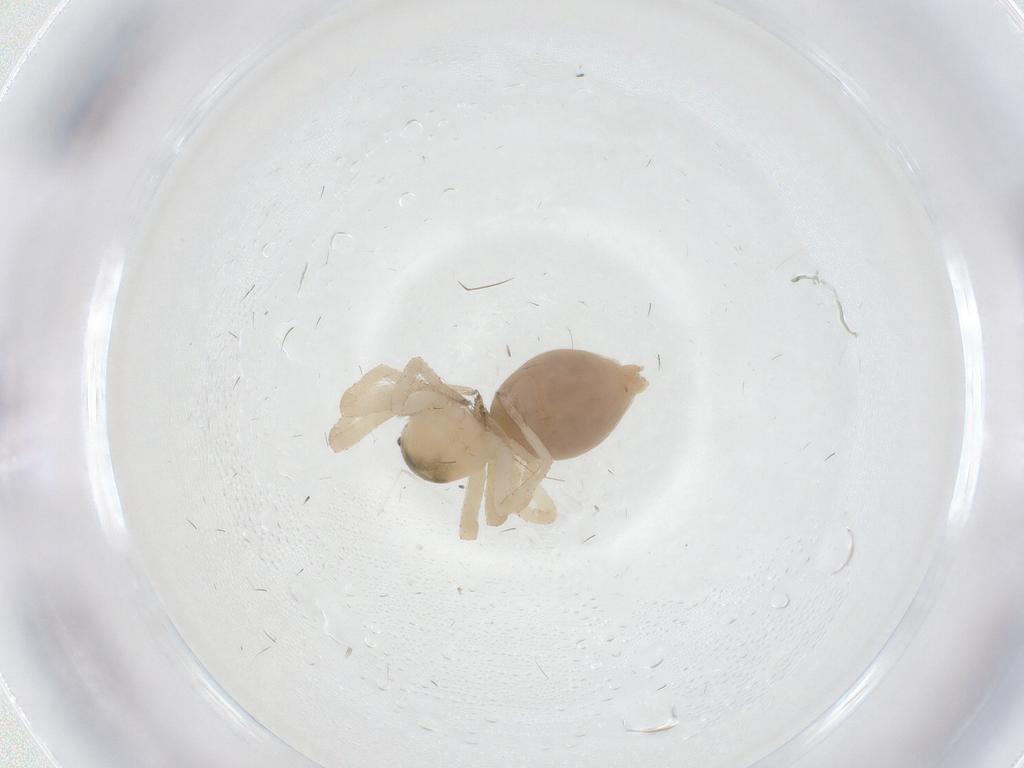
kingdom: Animalia
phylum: Arthropoda
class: Arachnida
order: Araneae
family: Dictynidae
